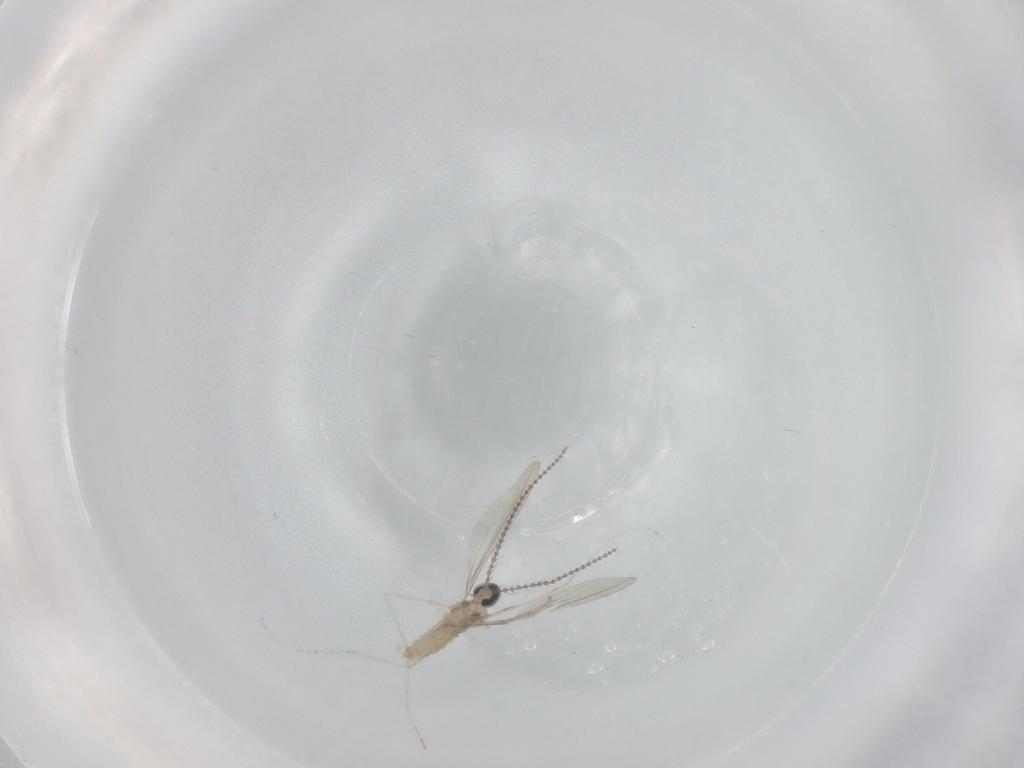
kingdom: Animalia
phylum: Arthropoda
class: Insecta
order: Diptera
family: Cecidomyiidae
